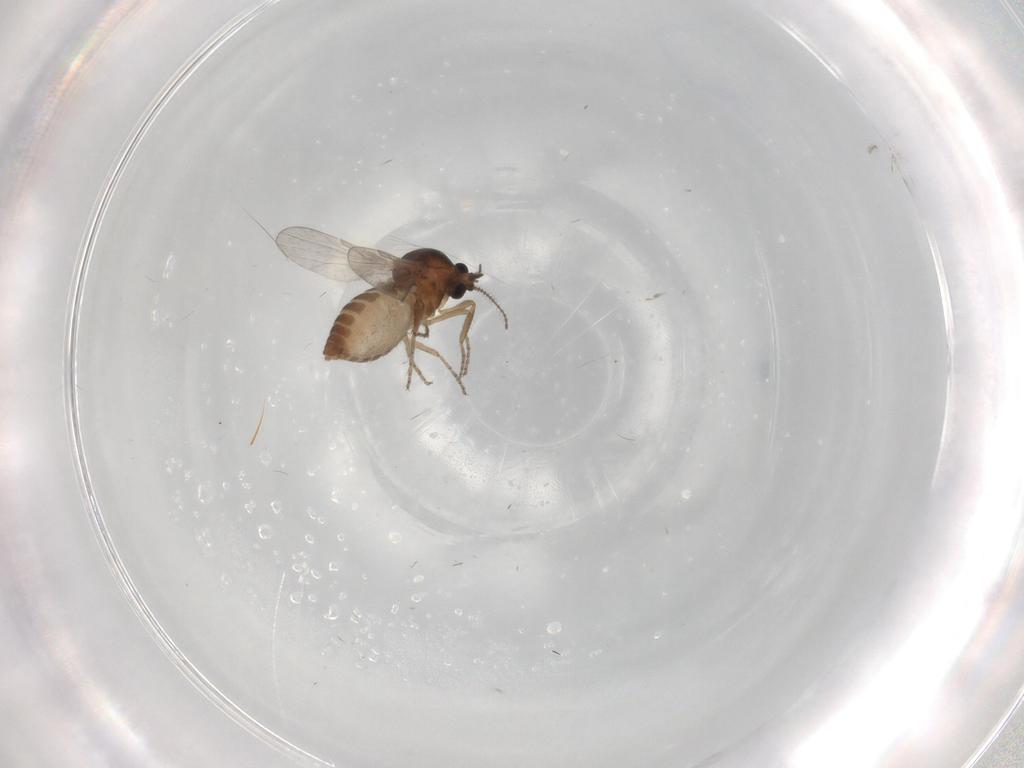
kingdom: Animalia
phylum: Arthropoda
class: Insecta
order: Diptera
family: Ceratopogonidae
